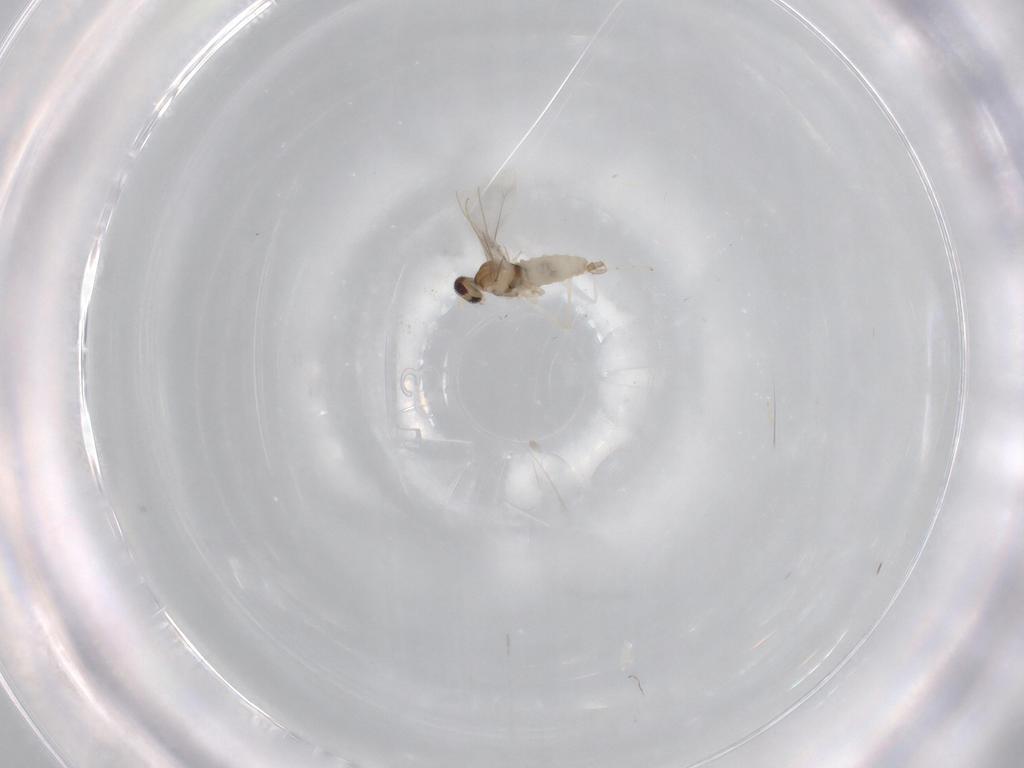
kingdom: Animalia
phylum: Arthropoda
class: Insecta
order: Diptera
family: Cecidomyiidae
